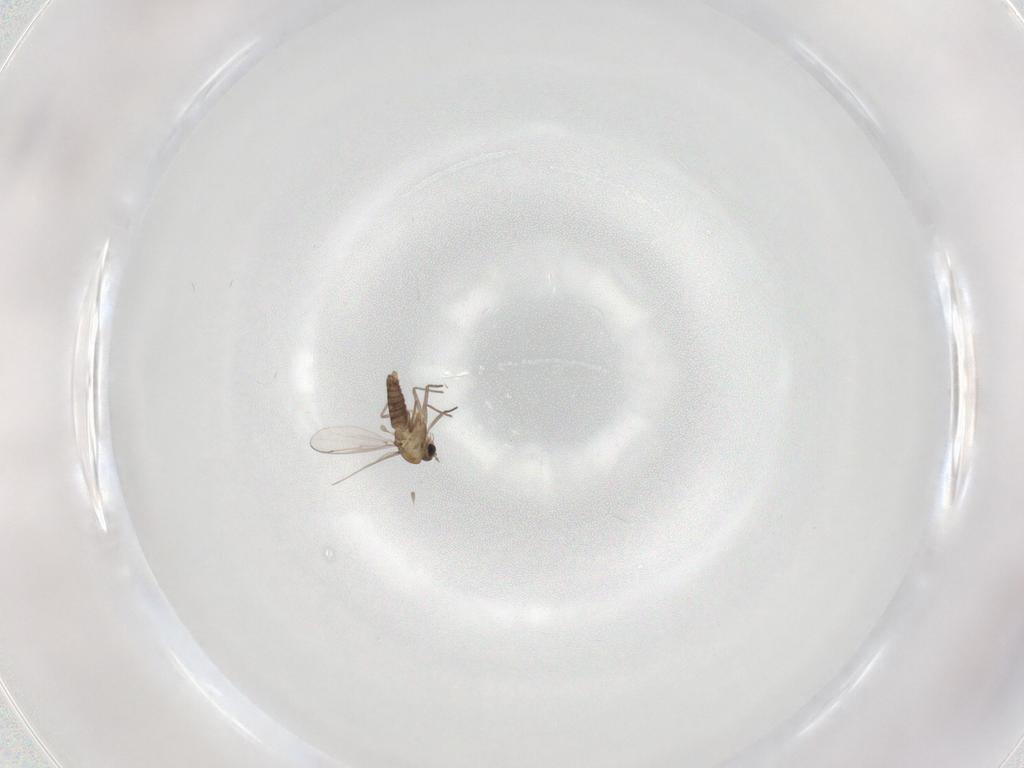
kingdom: Animalia
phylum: Arthropoda
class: Insecta
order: Diptera
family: Chironomidae
